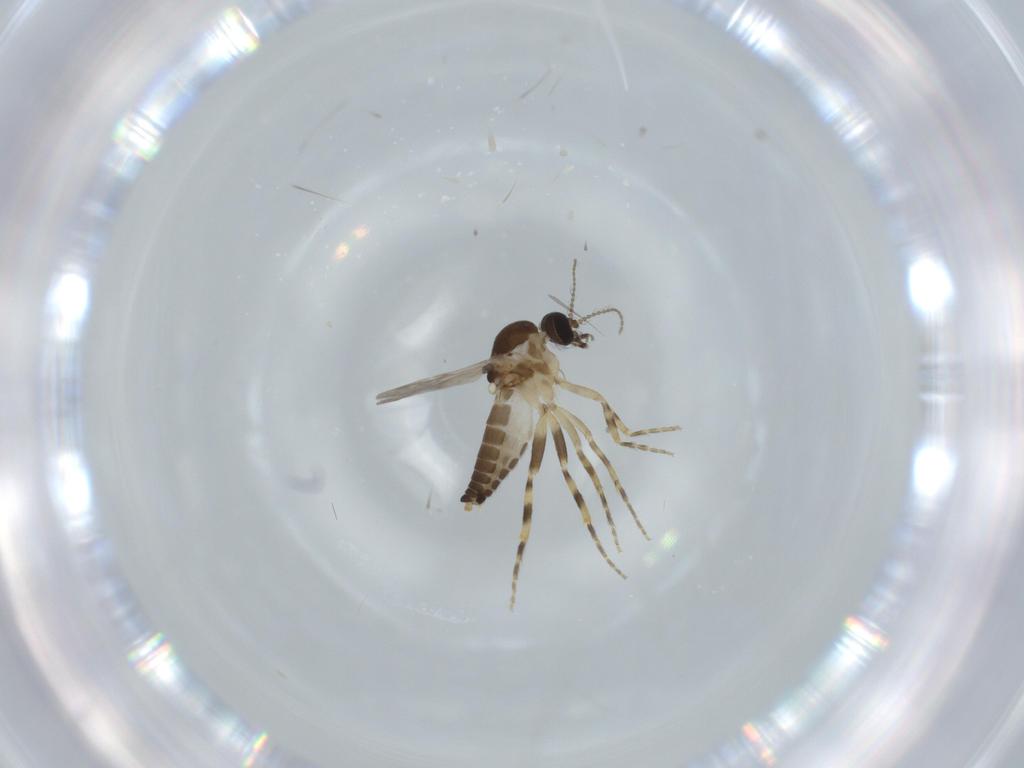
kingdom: Animalia
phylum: Arthropoda
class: Insecta
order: Diptera
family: Ceratopogonidae
